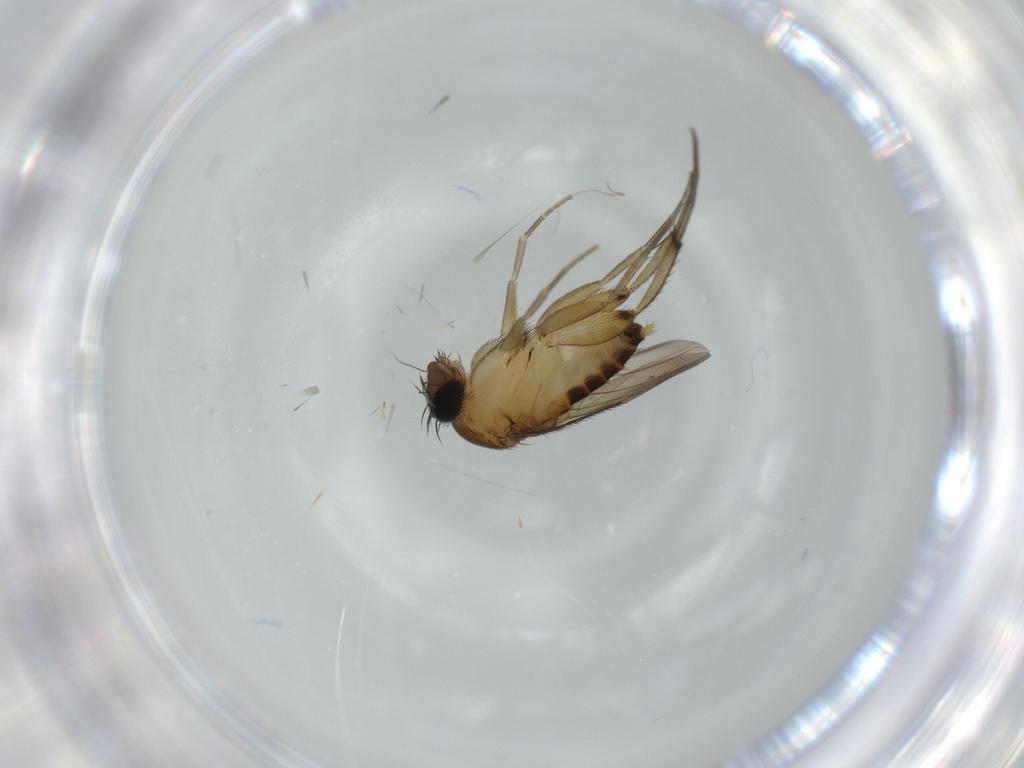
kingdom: Animalia
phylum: Arthropoda
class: Insecta
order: Diptera
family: Phoridae
